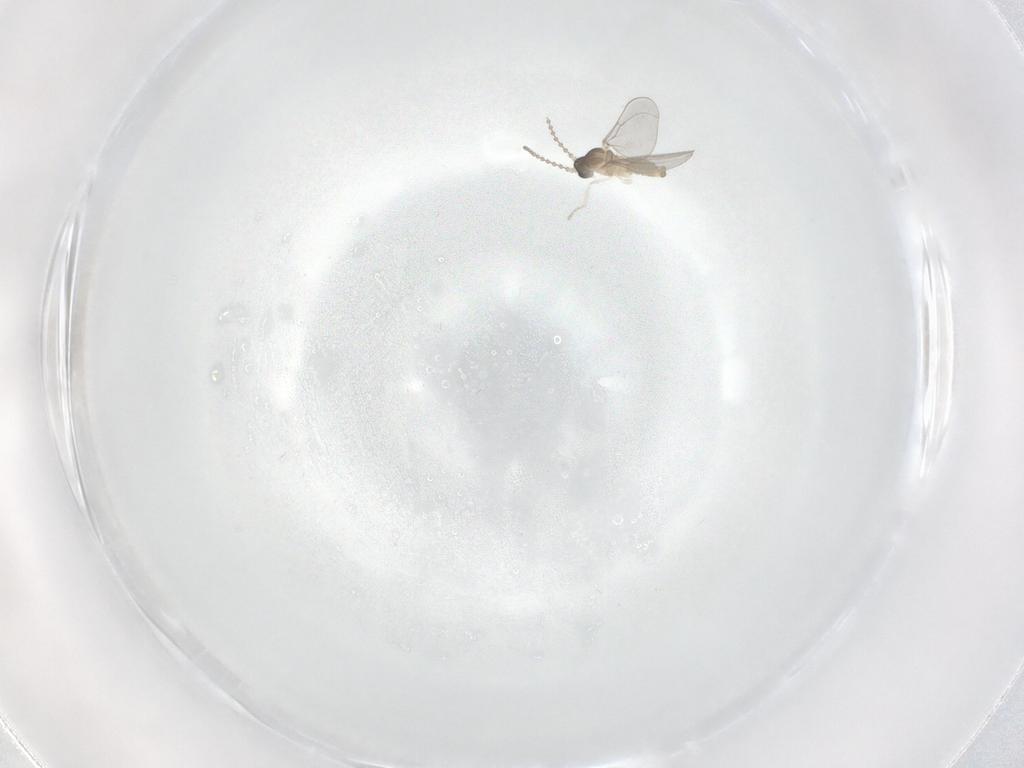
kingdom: Animalia
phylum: Arthropoda
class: Insecta
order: Diptera
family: Cecidomyiidae
